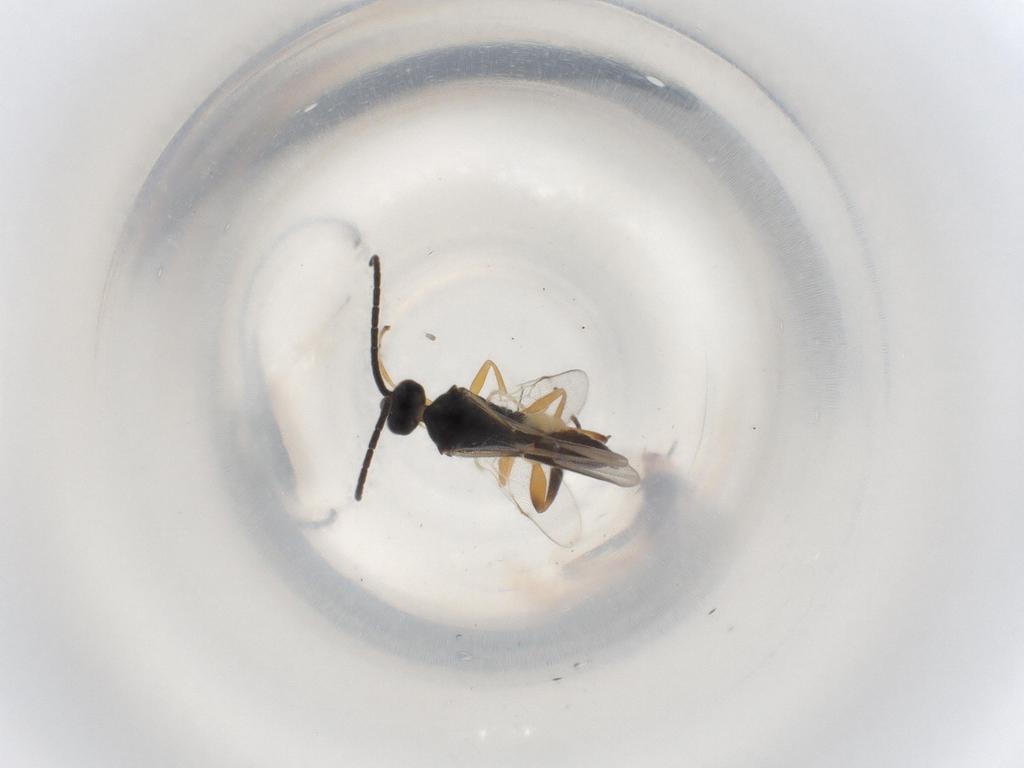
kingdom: Animalia
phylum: Arthropoda
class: Insecta
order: Hymenoptera
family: Braconidae
